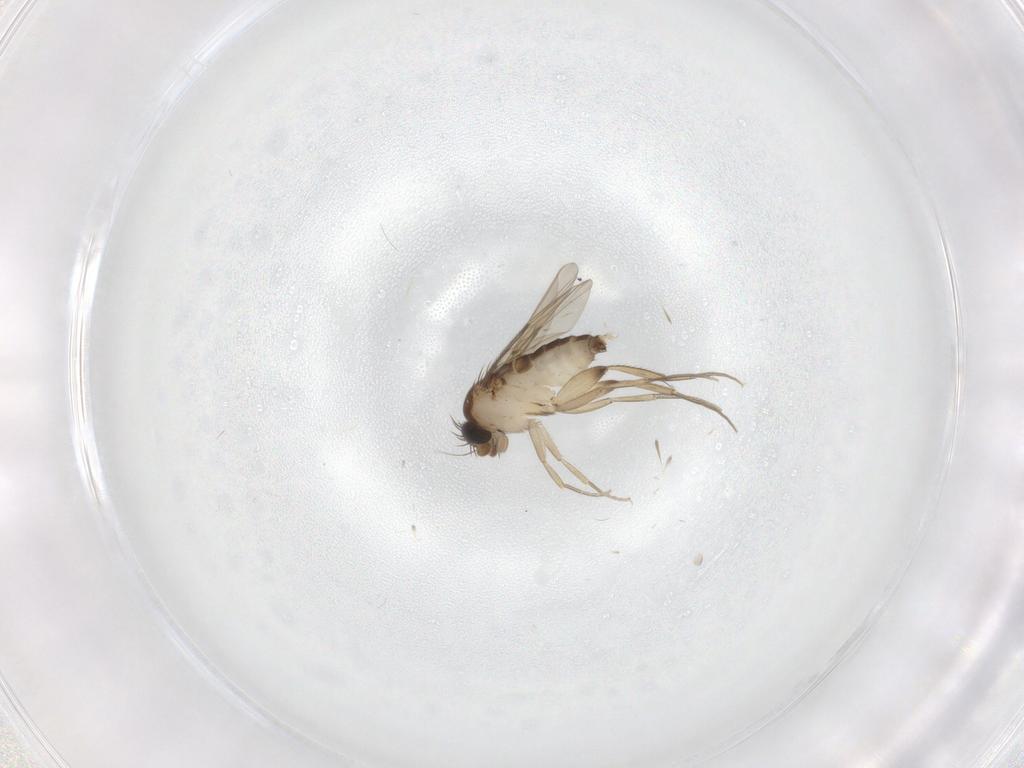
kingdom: Animalia
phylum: Arthropoda
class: Insecta
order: Diptera
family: Phoridae
